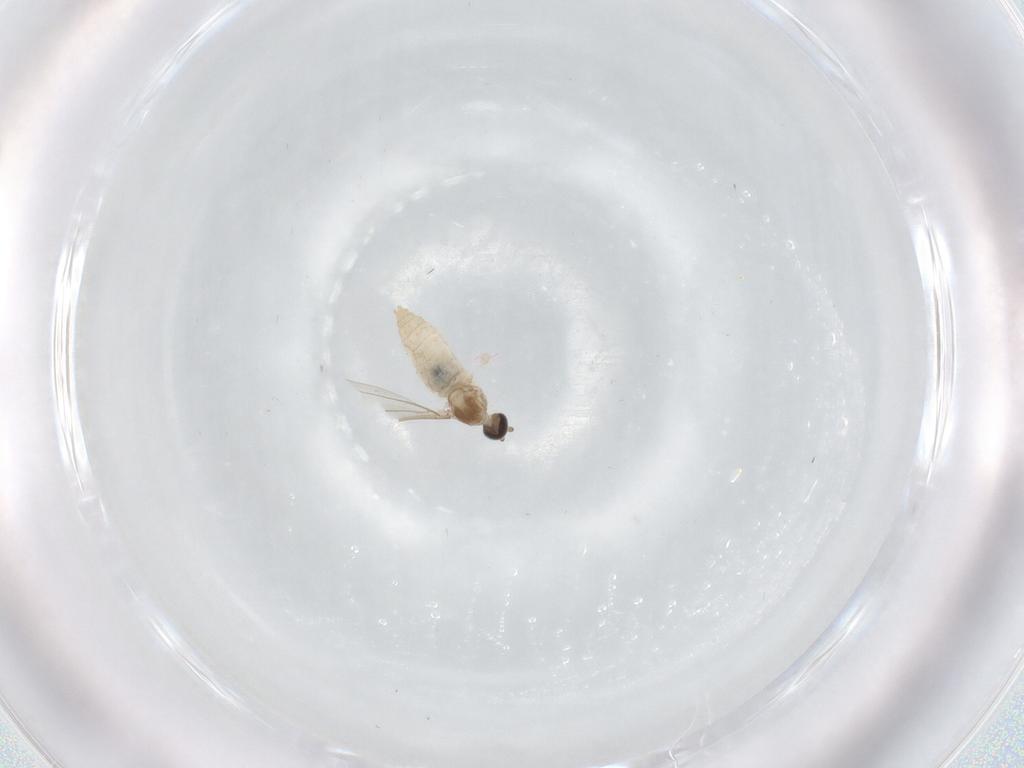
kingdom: Animalia
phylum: Arthropoda
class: Insecta
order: Diptera
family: Cecidomyiidae
